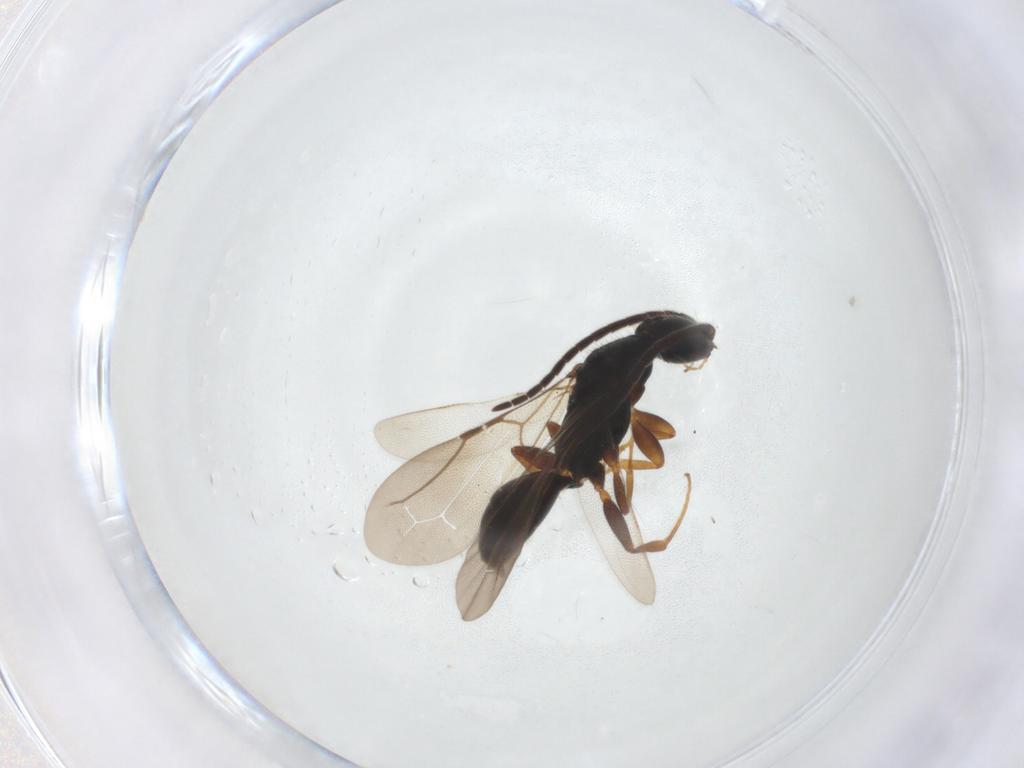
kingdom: Animalia
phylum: Arthropoda
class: Insecta
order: Hymenoptera
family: Bethylidae
